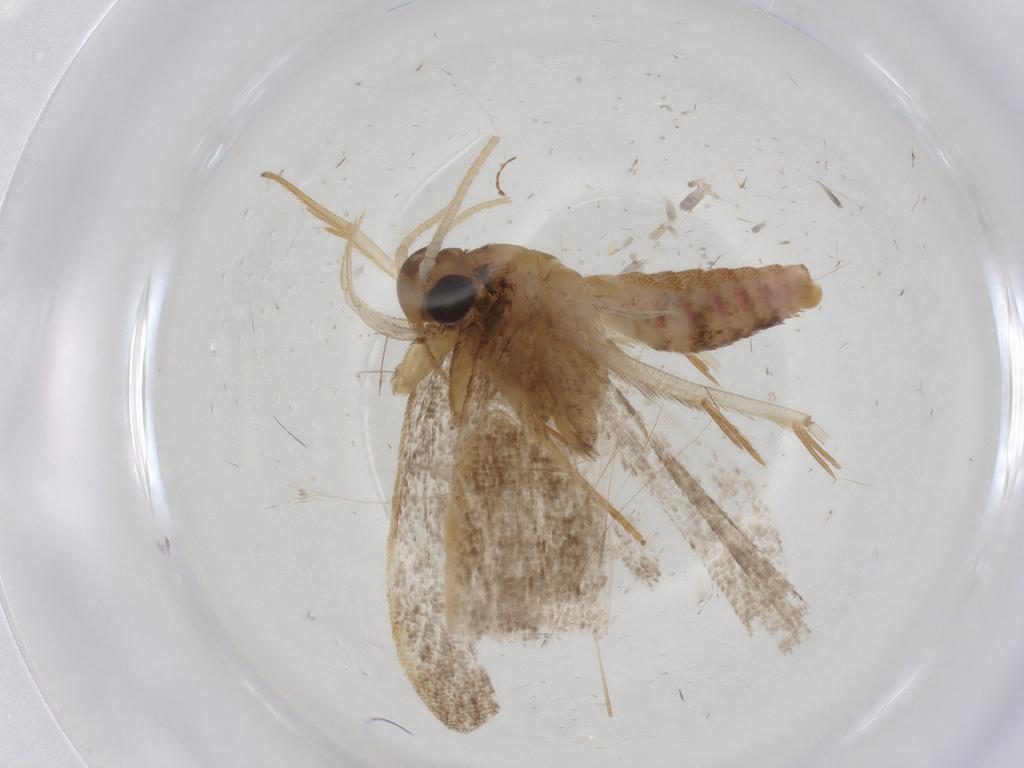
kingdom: Animalia
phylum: Arthropoda
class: Insecta
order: Lepidoptera
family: Lecithoceridae
